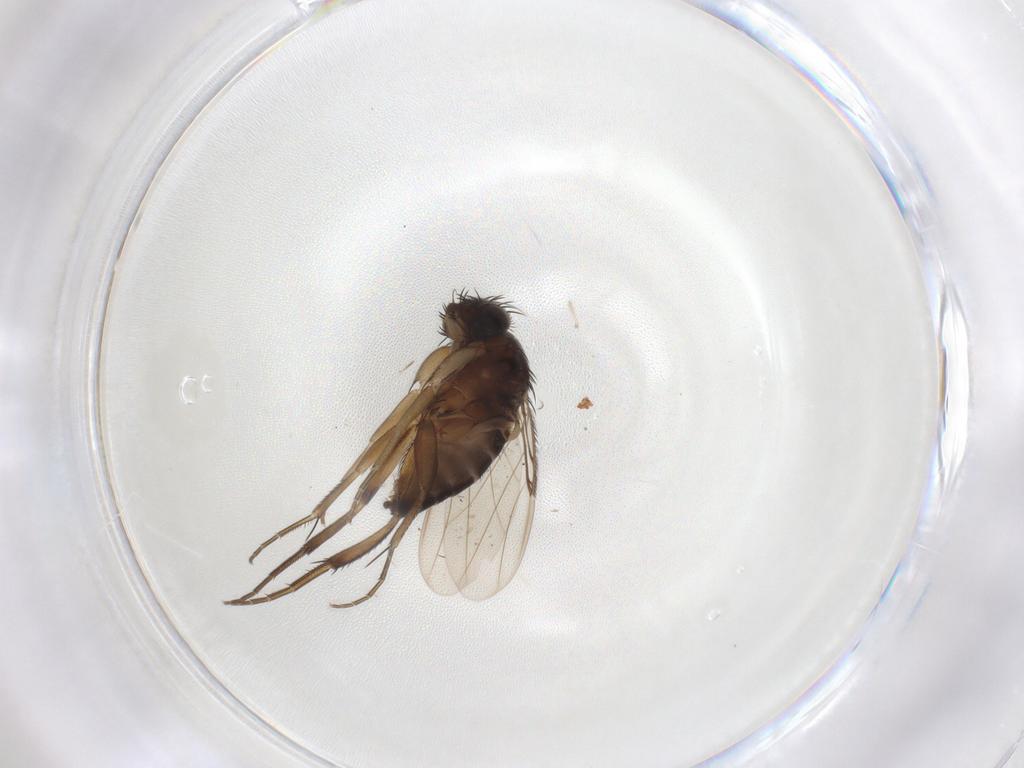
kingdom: Animalia
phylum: Arthropoda
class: Insecta
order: Diptera
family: Phoridae
